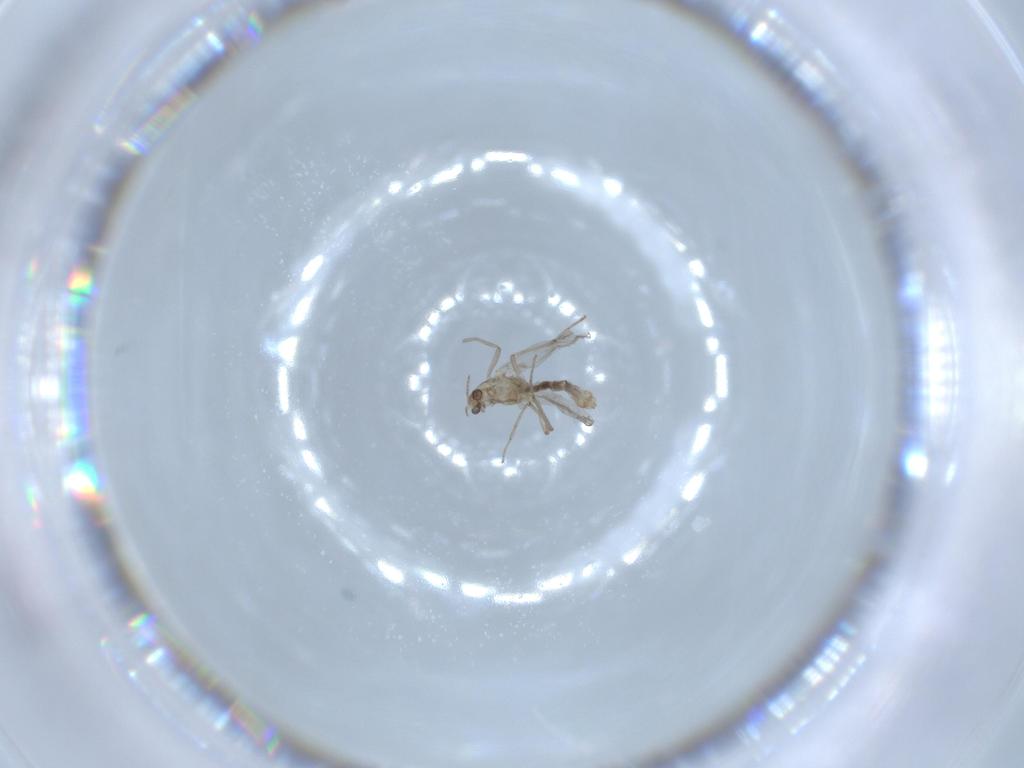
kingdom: Animalia
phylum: Arthropoda
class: Insecta
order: Diptera
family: Chironomidae
